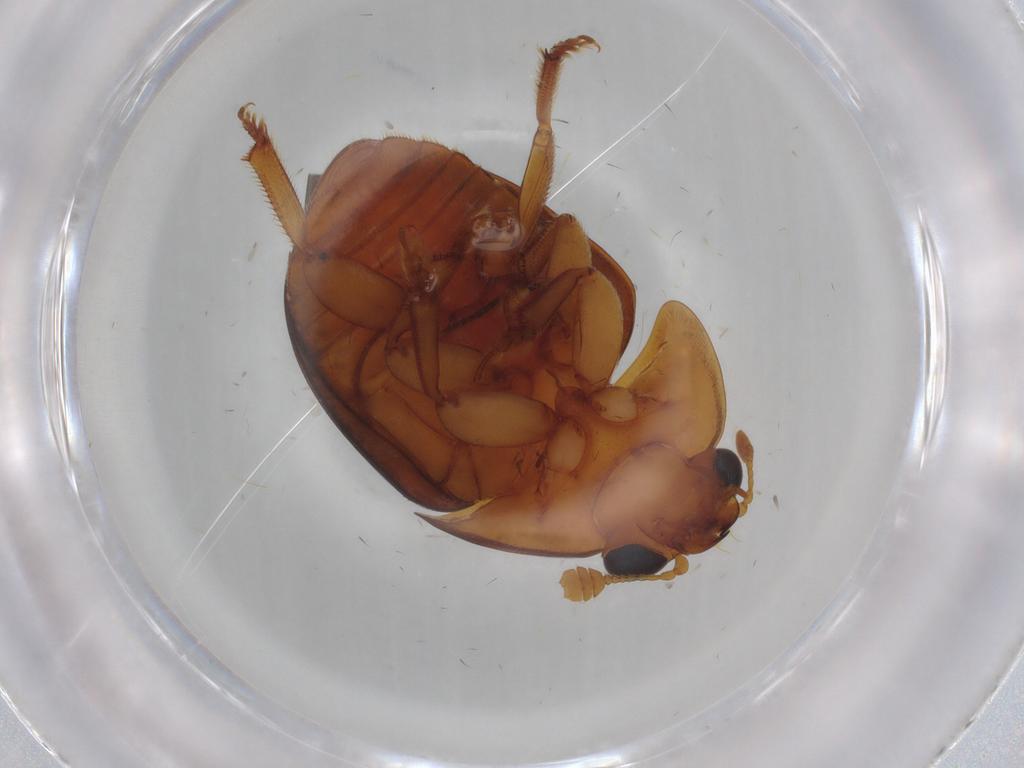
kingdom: Animalia
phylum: Arthropoda
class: Insecta
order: Coleoptera
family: Nitidulidae
